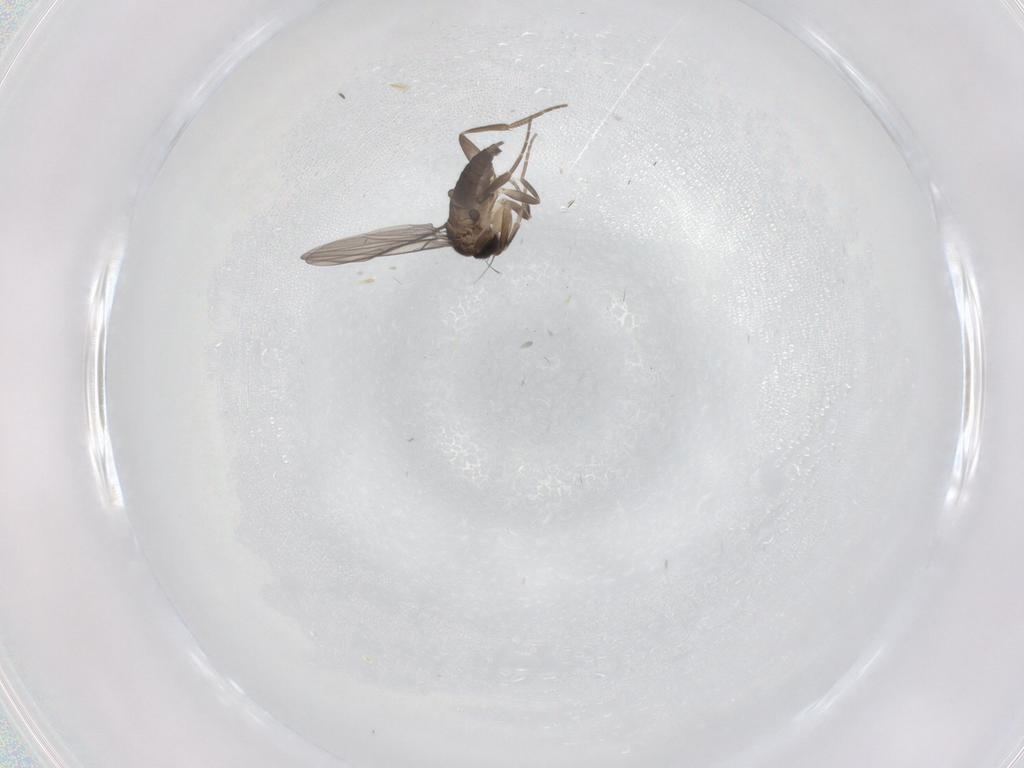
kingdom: Animalia
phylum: Arthropoda
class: Insecta
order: Diptera
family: Phoridae
